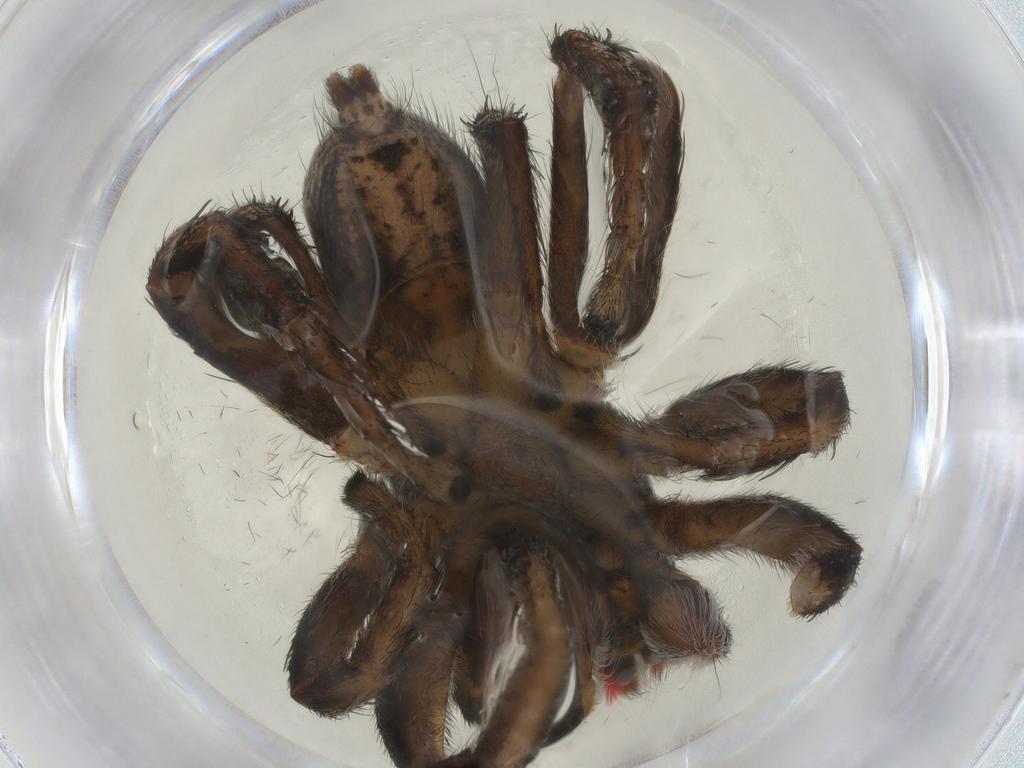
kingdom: Animalia
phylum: Arthropoda
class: Arachnida
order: Araneae
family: Salticidae
